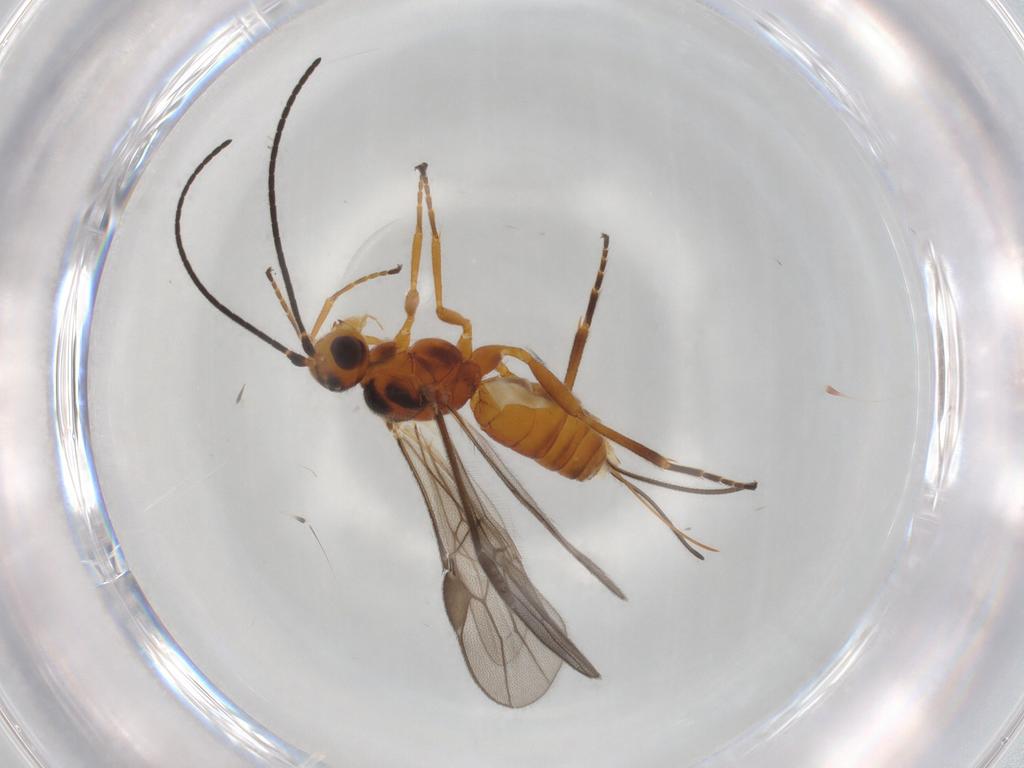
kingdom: Animalia
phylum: Arthropoda
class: Insecta
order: Hymenoptera
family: Braconidae
